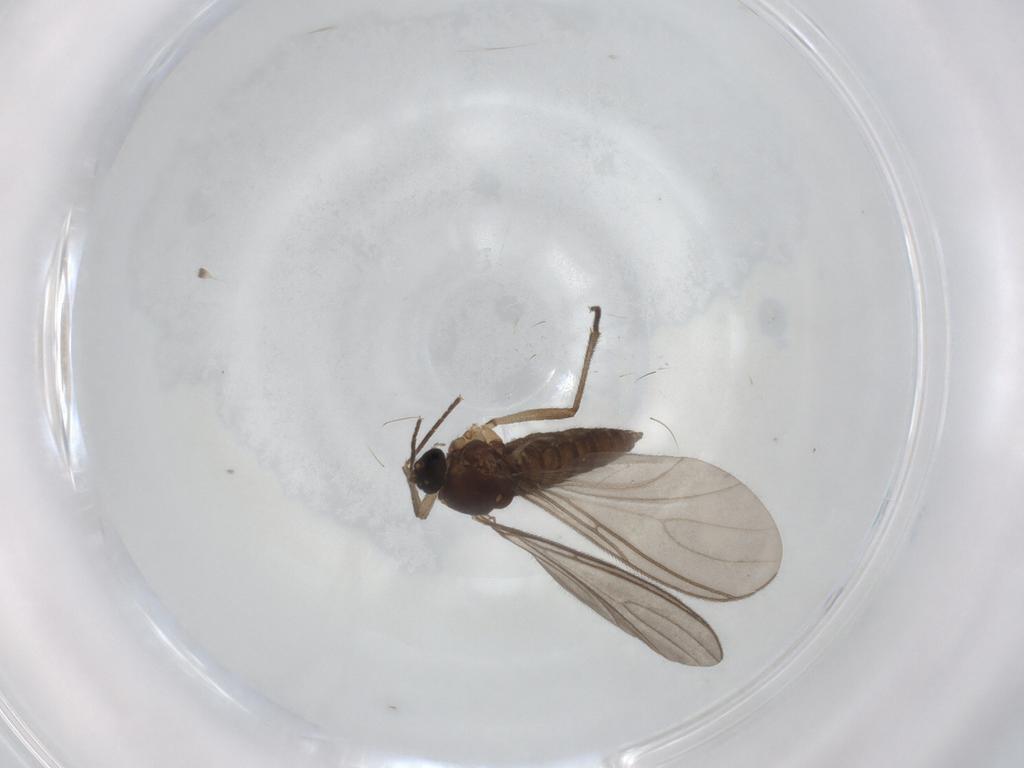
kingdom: Animalia
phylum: Arthropoda
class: Insecta
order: Diptera
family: Sciaridae
